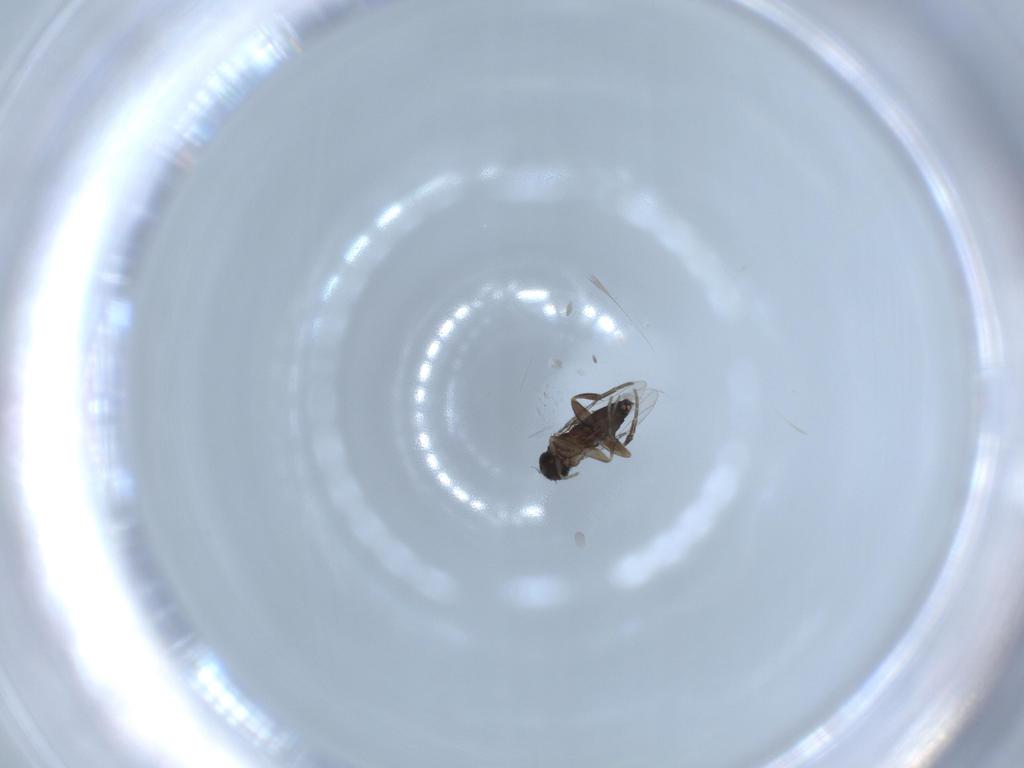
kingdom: Animalia
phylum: Arthropoda
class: Insecta
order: Diptera
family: Phoridae
